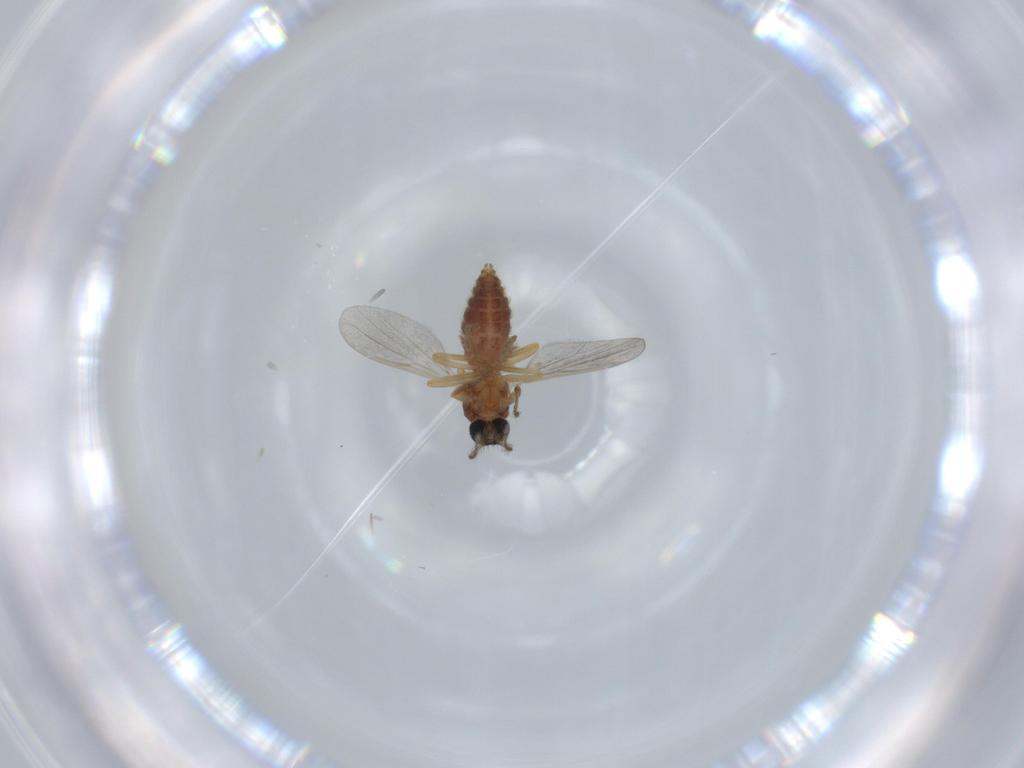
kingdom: Animalia
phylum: Arthropoda
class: Insecta
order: Diptera
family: Ceratopogonidae
